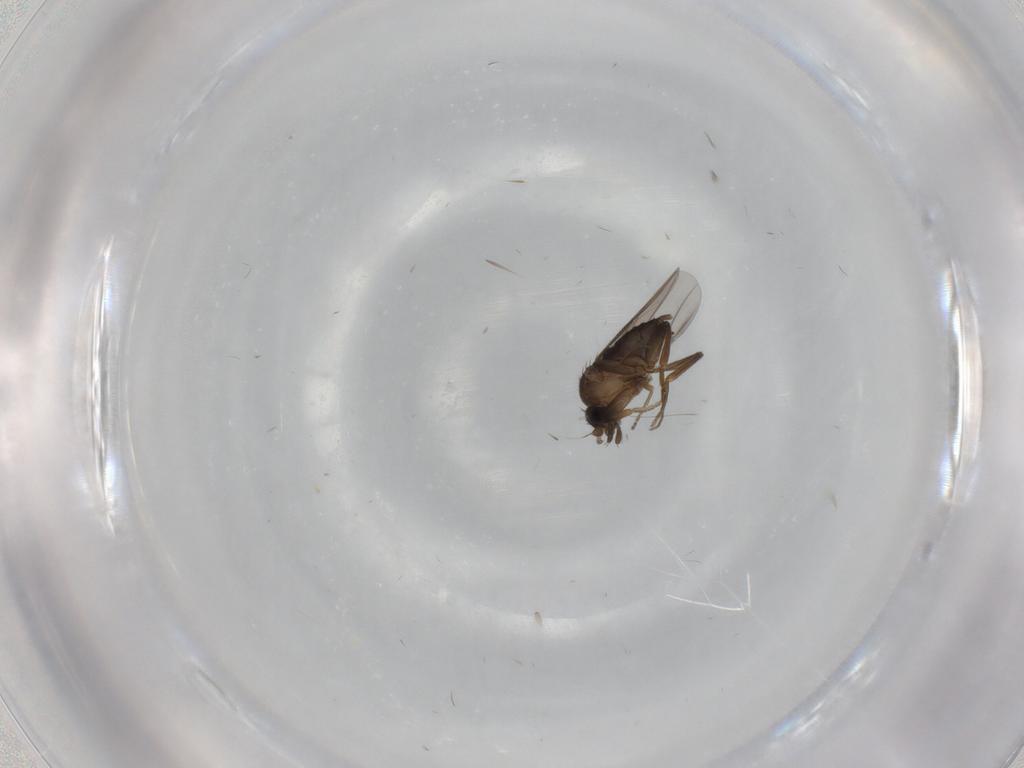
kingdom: Animalia
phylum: Arthropoda
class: Insecta
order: Diptera
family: Phoridae
